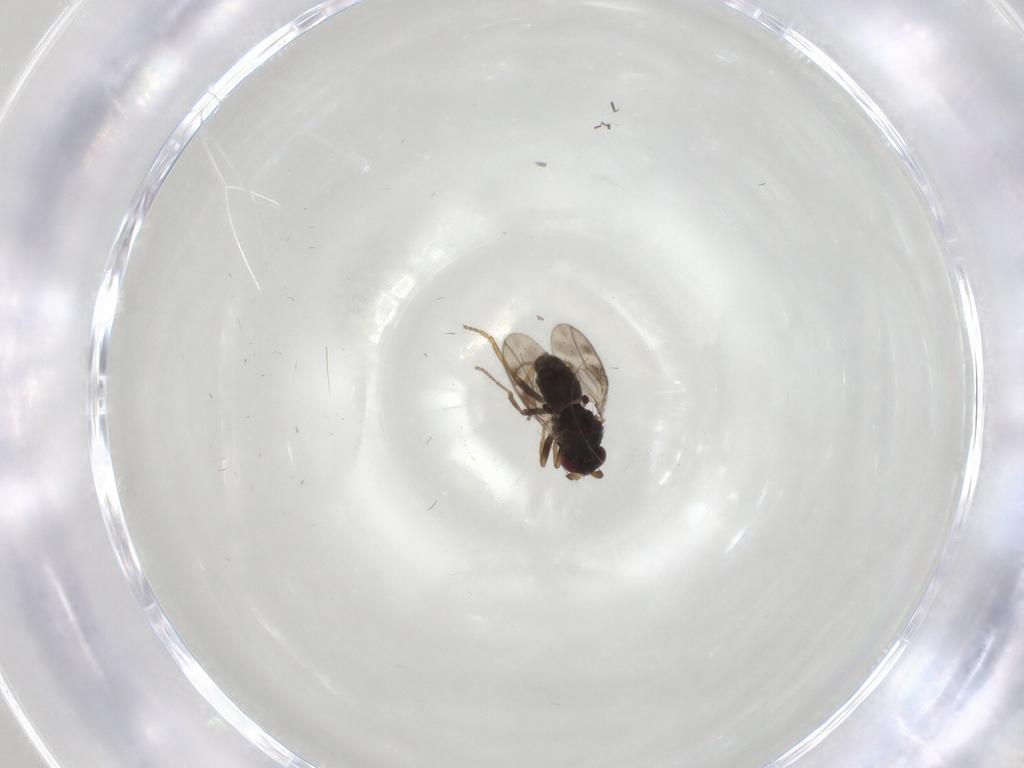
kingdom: Animalia
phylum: Arthropoda
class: Insecta
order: Diptera
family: Sphaeroceridae
